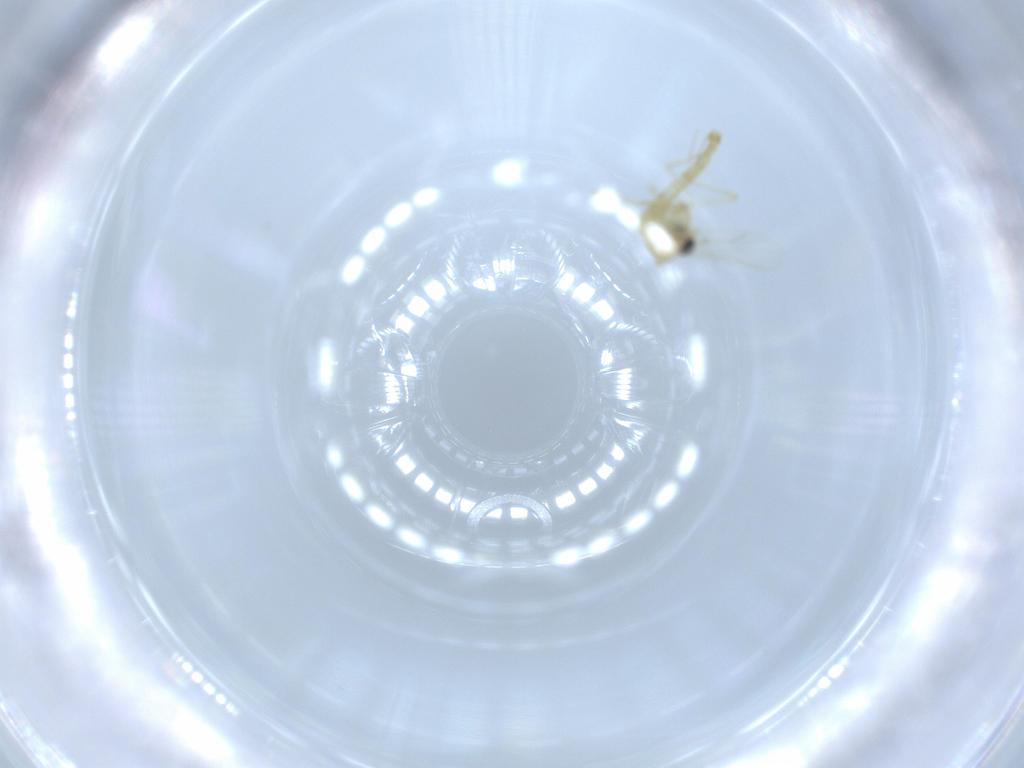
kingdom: Animalia
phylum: Arthropoda
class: Insecta
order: Diptera
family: Chironomidae
